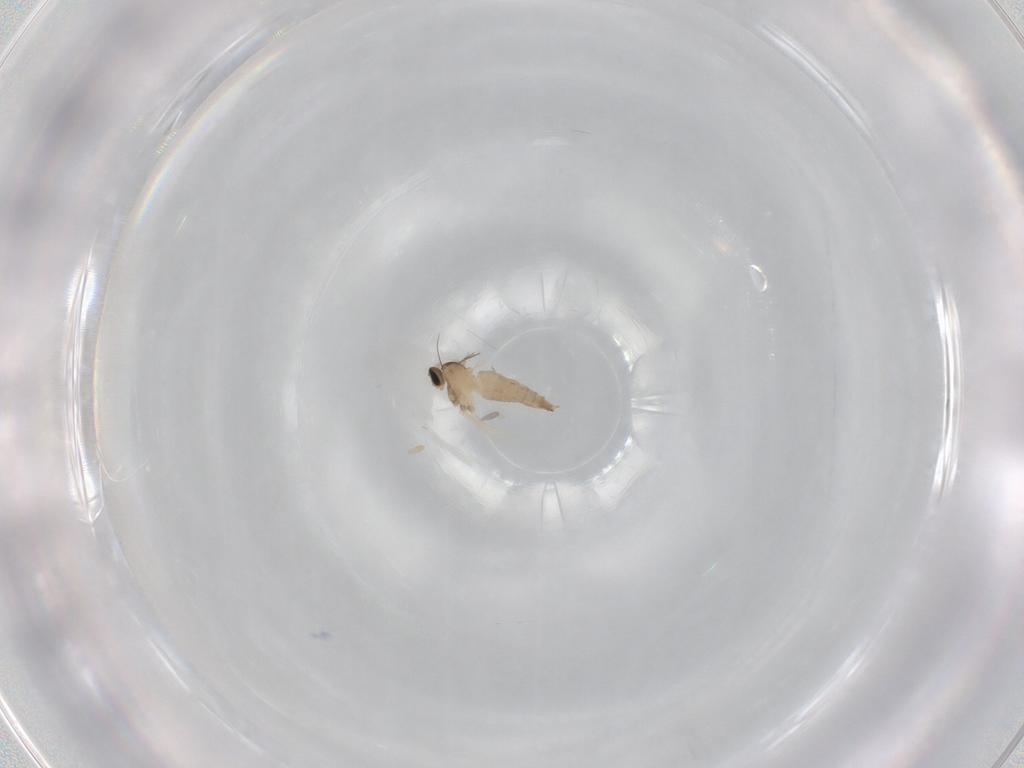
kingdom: Animalia
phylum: Arthropoda
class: Insecta
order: Diptera
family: Cecidomyiidae
